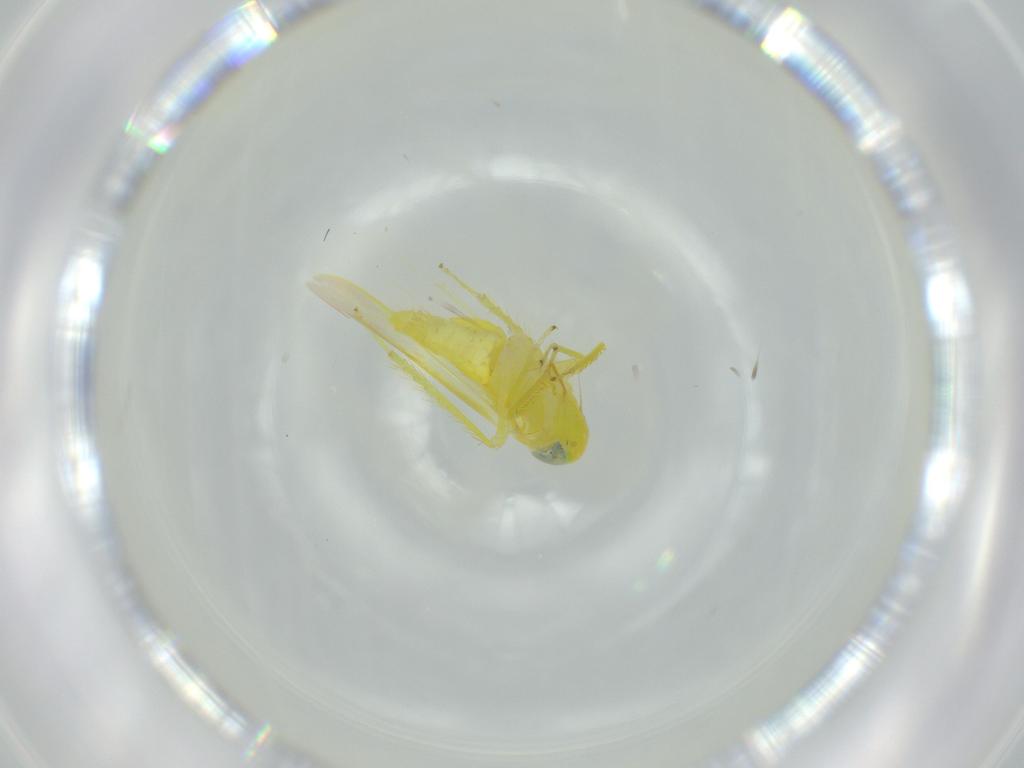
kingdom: Animalia
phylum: Arthropoda
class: Insecta
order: Hemiptera
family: Cicadellidae
